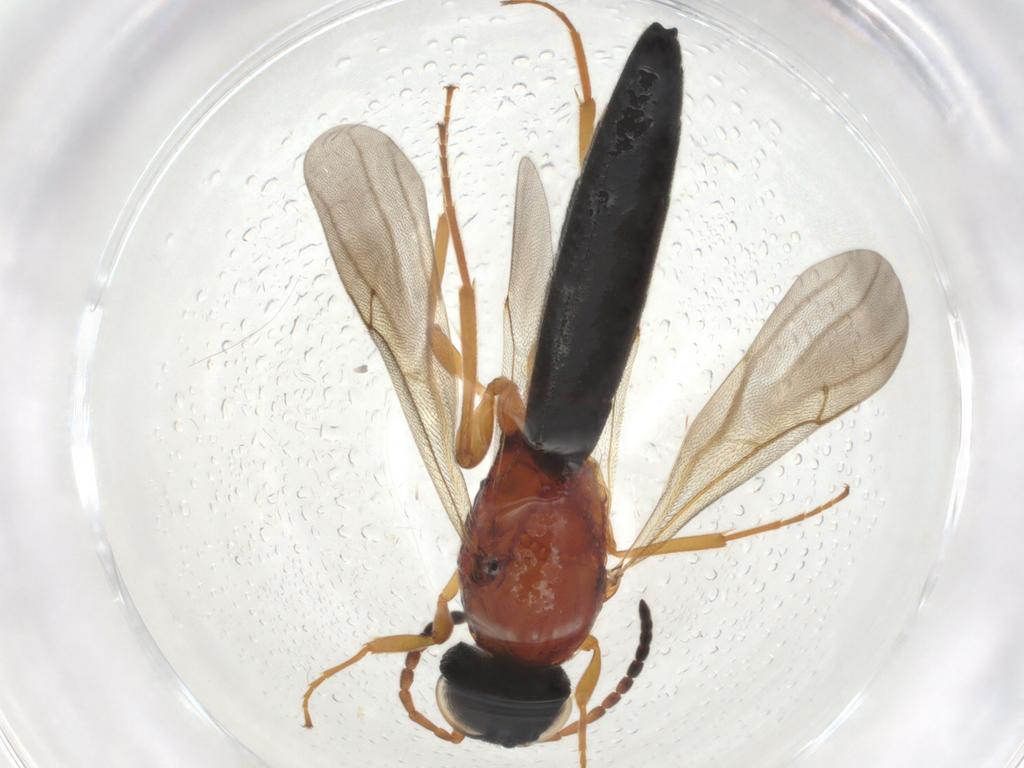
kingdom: Animalia
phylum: Arthropoda
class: Insecta
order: Hymenoptera
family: Formicidae
